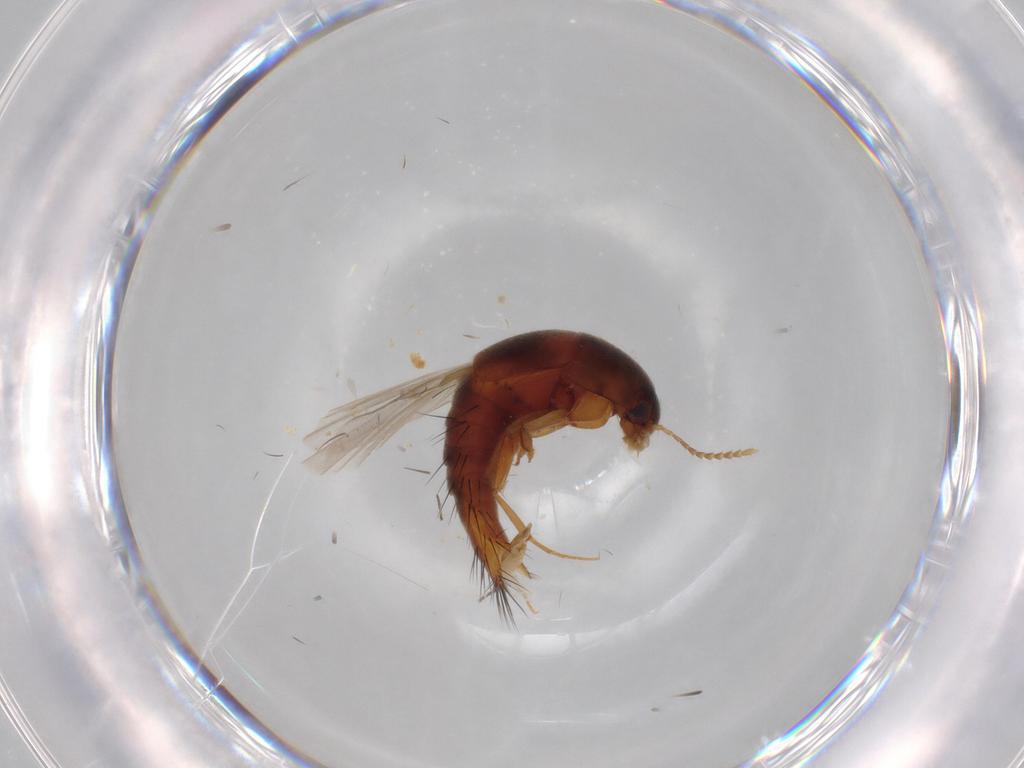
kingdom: Animalia
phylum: Arthropoda
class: Insecta
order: Coleoptera
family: Staphylinidae
